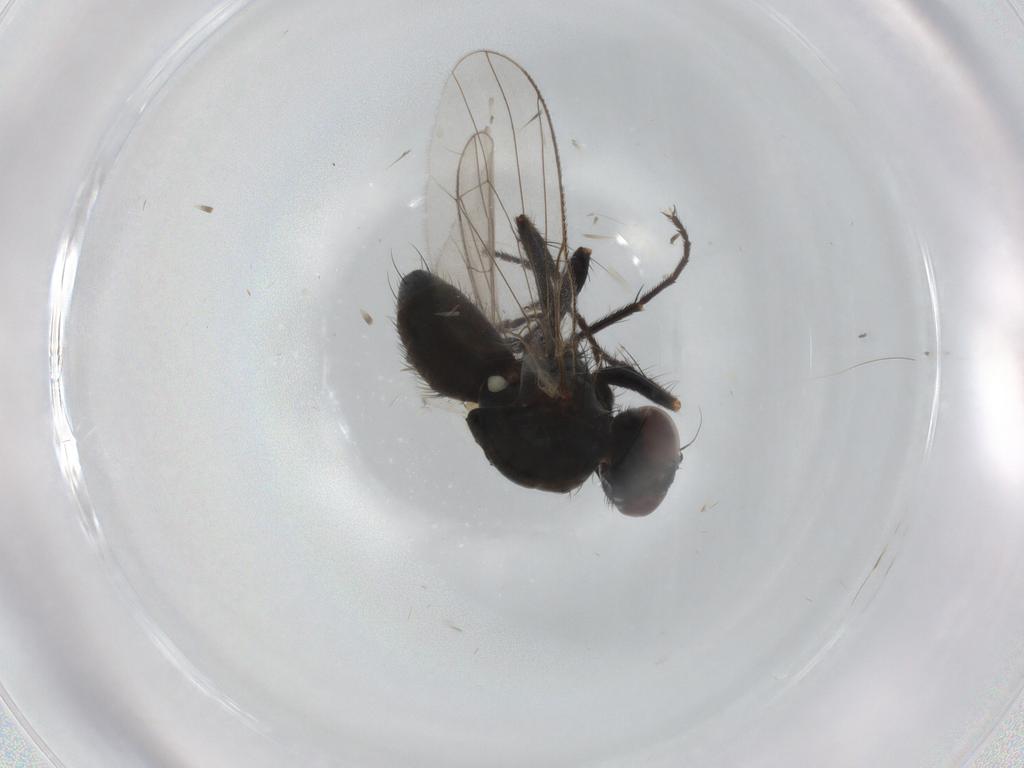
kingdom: Animalia
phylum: Arthropoda
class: Insecta
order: Diptera
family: Muscidae
